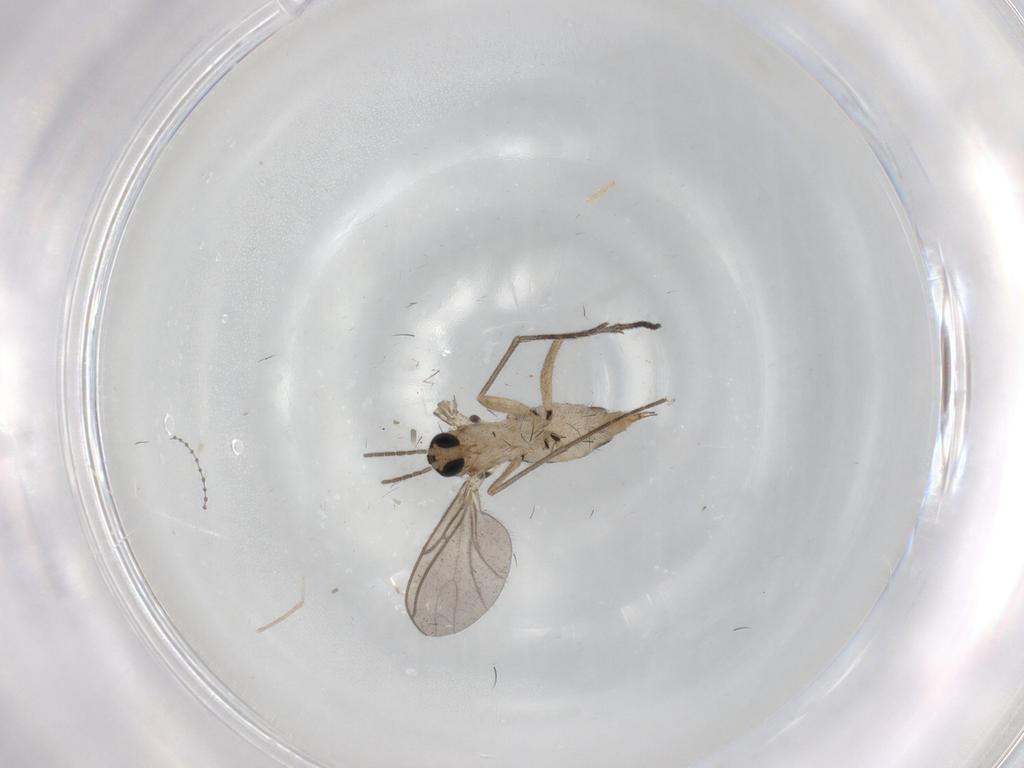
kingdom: Animalia
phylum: Arthropoda
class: Insecta
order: Diptera
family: Sciaridae
